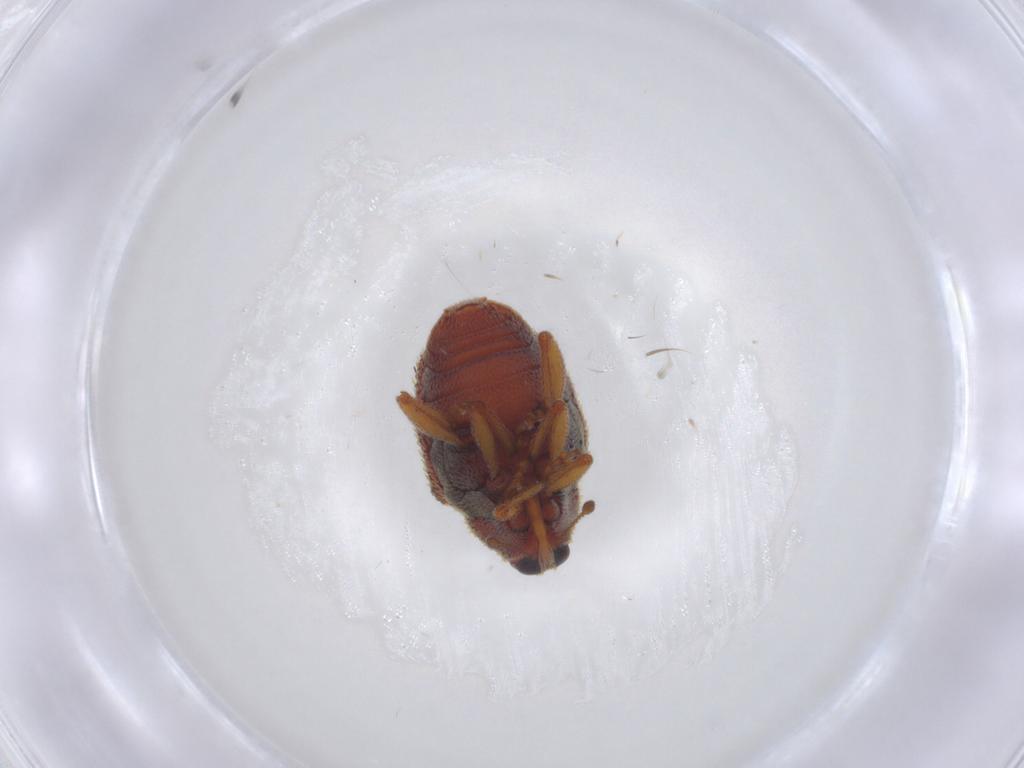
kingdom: Animalia
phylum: Arthropoda
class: Insecta
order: Coleoptera
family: Curculionidae
